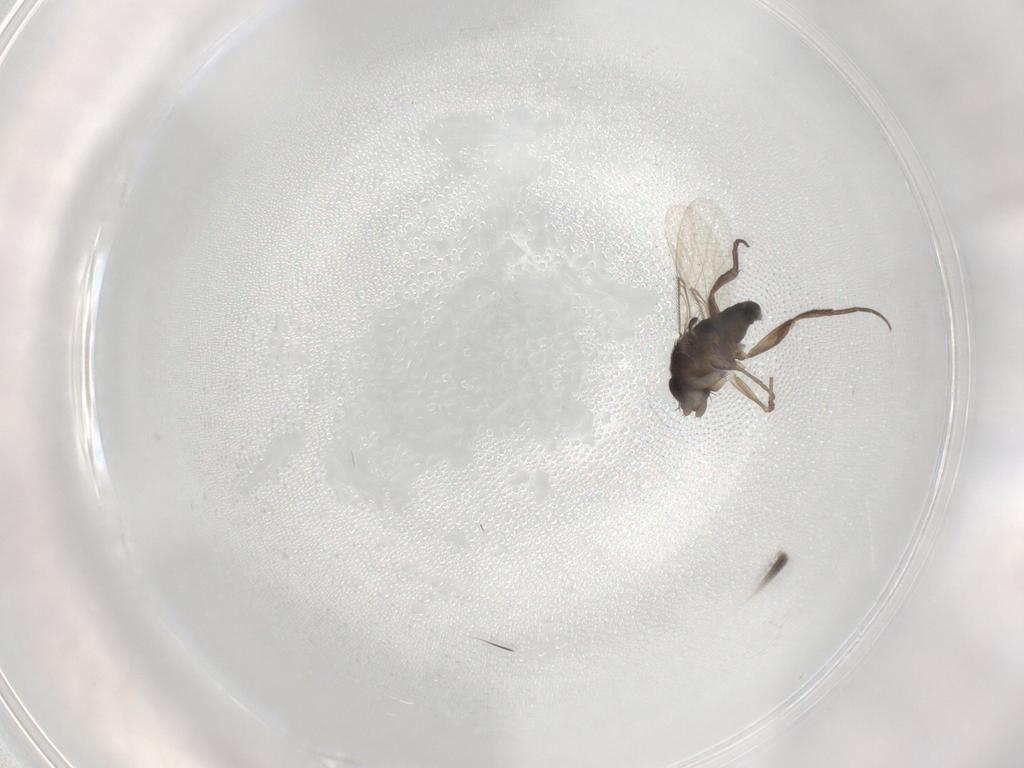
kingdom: Animalia
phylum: Arthropoda
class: Insecta
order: Diptera
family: Phoridae
